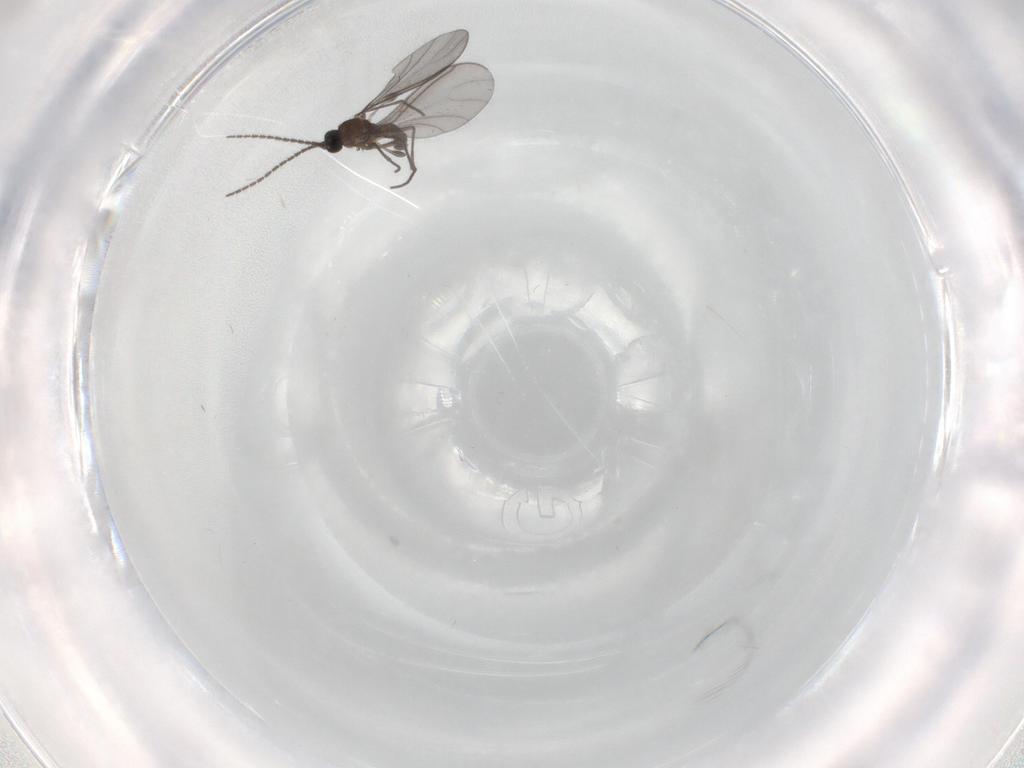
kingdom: Animalia
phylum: Arthropoda
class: Insecta
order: Diptera
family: Sciaridae
